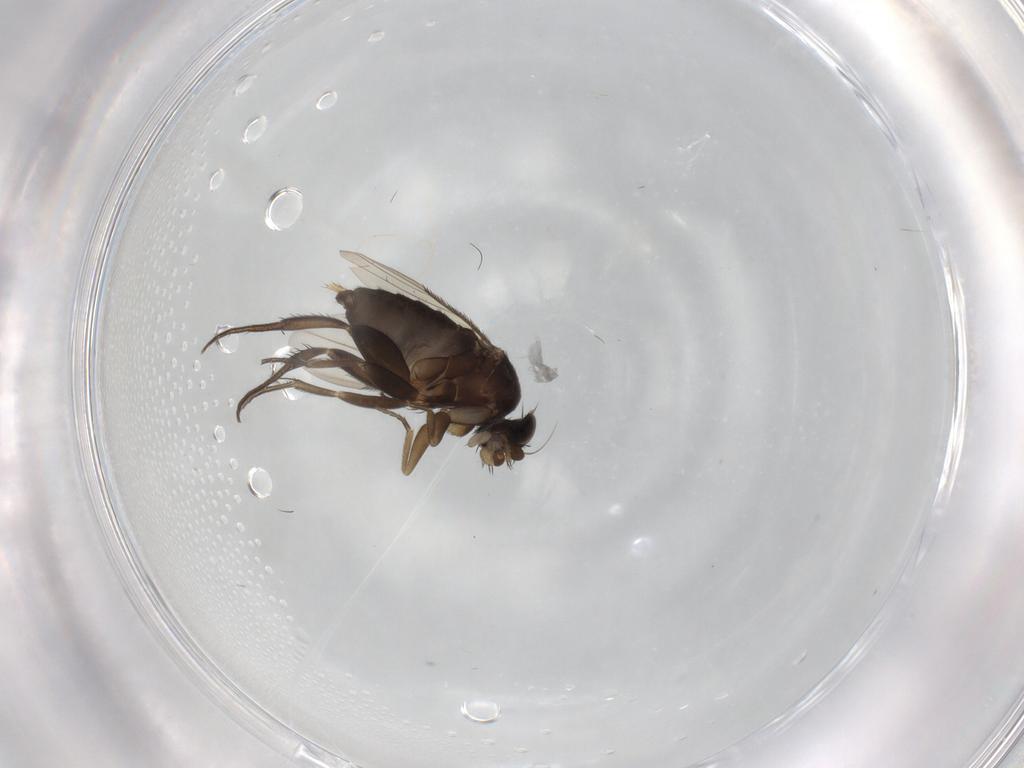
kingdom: Animalia
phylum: Arthropoda
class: Insecta
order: Diptera
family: Phoridae
